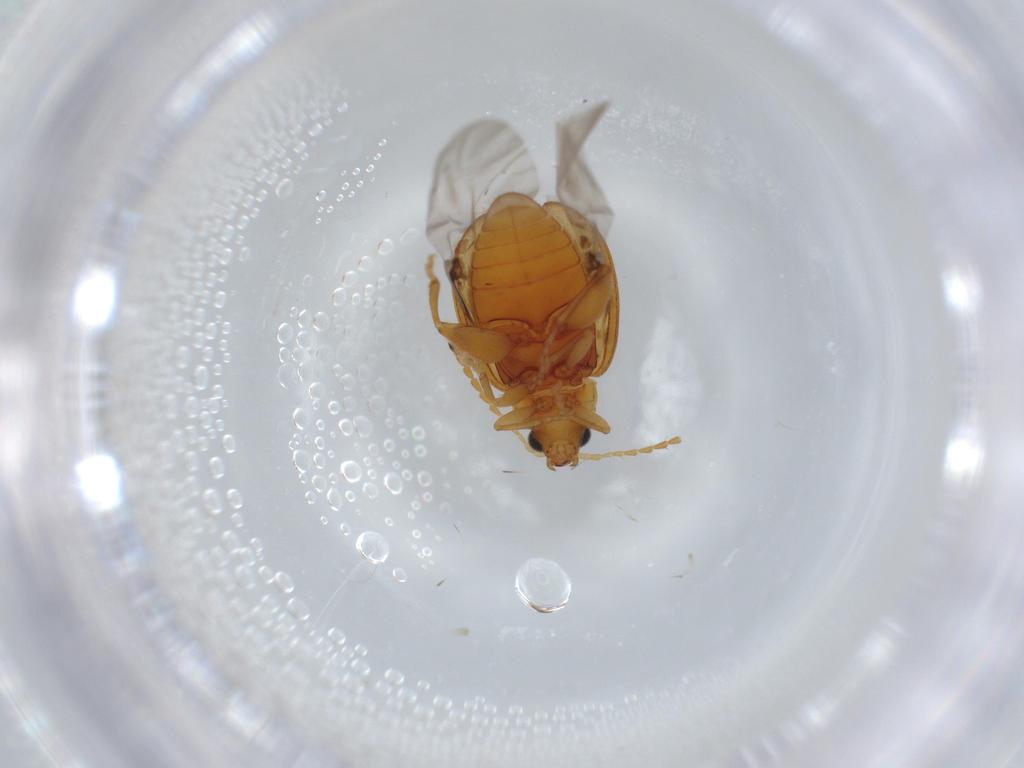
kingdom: Animalia
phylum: Arthropoda
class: Insecta
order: Coleoptera
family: Chrysomelidae
